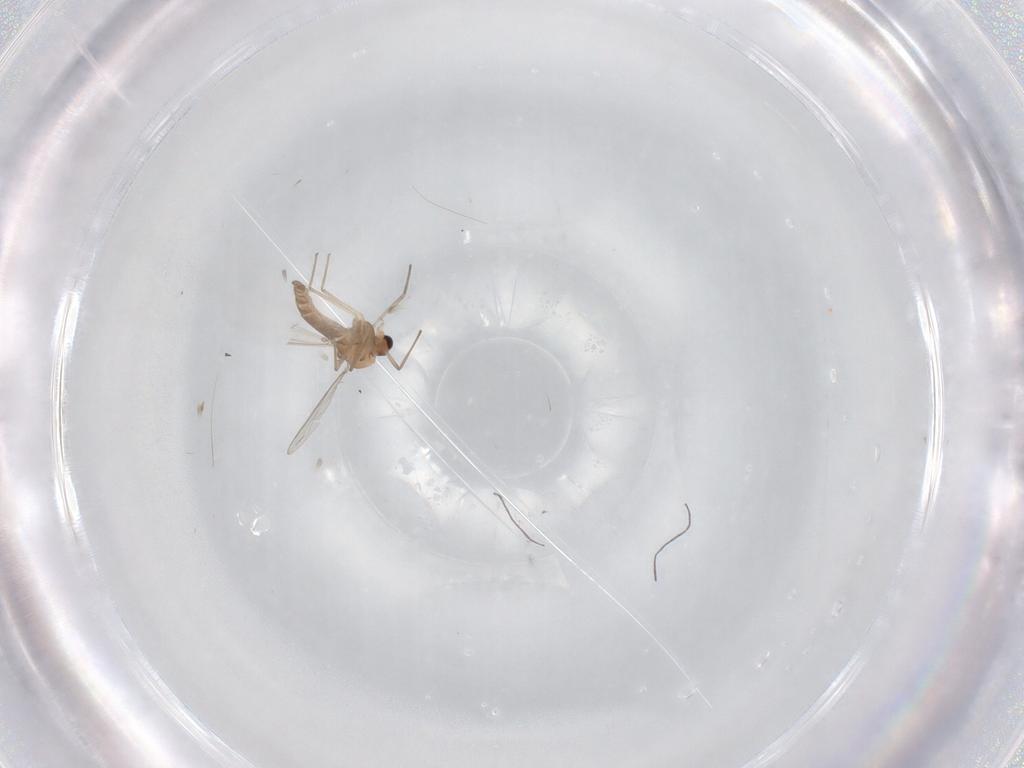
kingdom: Animalia
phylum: Arthropoda
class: Insecta
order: Diptera
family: Chironomidae
